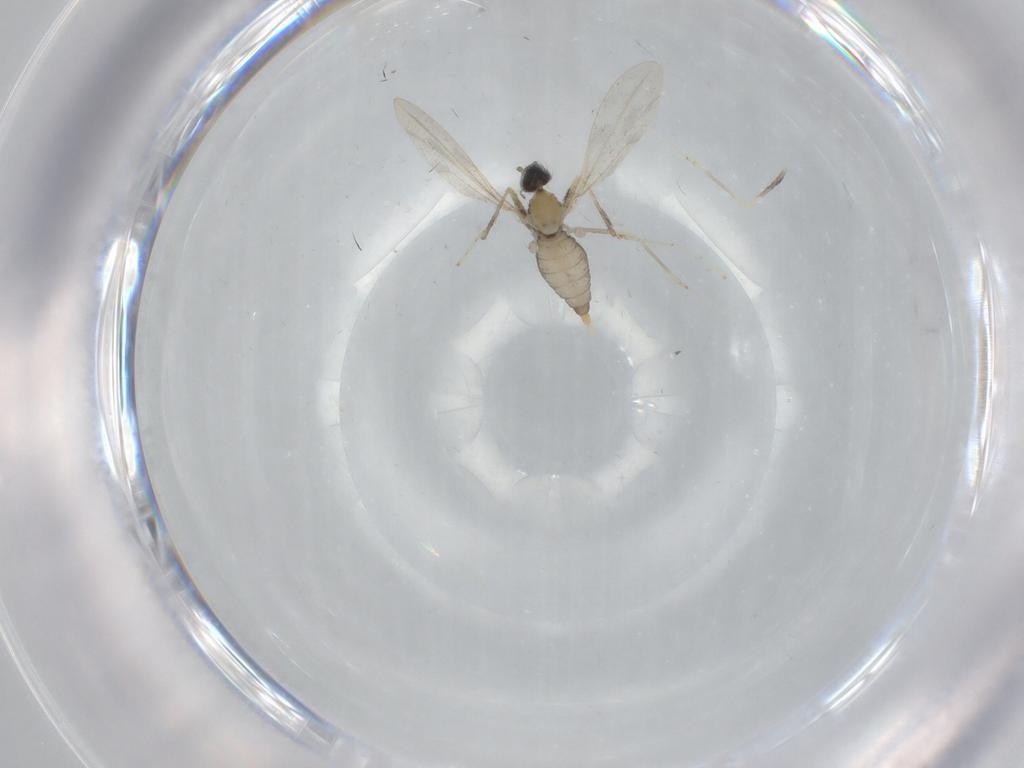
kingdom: Animalia
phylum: Arthropoda
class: Insecta
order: Diptera
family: Cecidomyiidae
